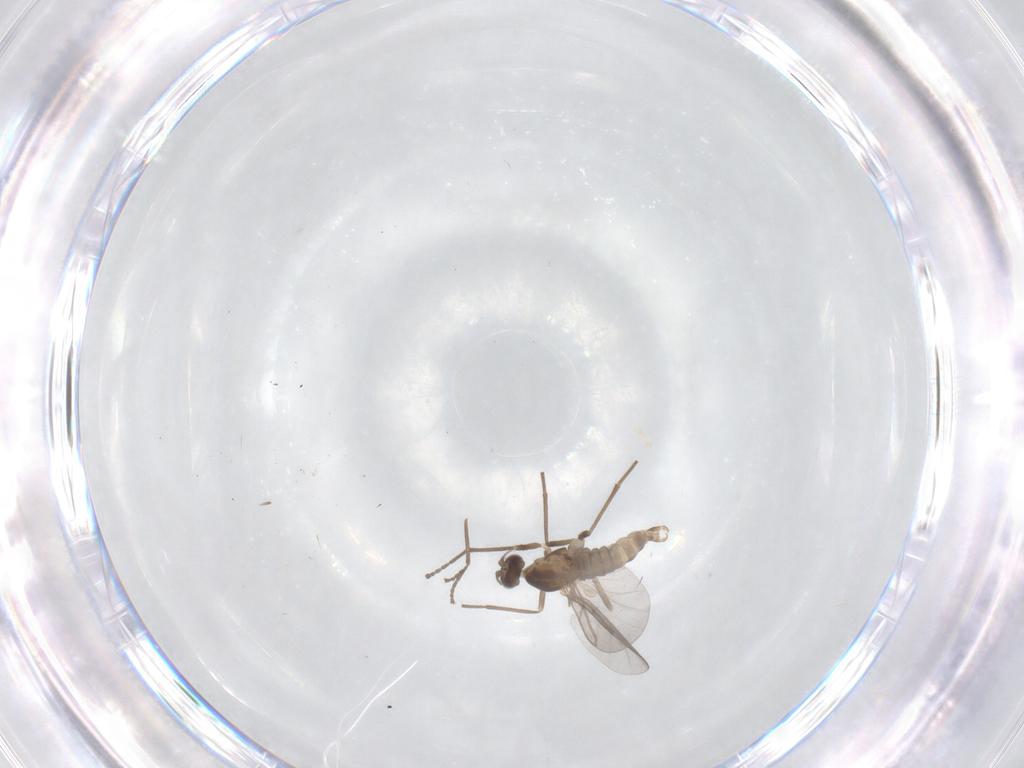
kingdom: Animalia
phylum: Arthropoda
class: Insecta
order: Diptera
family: Cecidomyiidae
